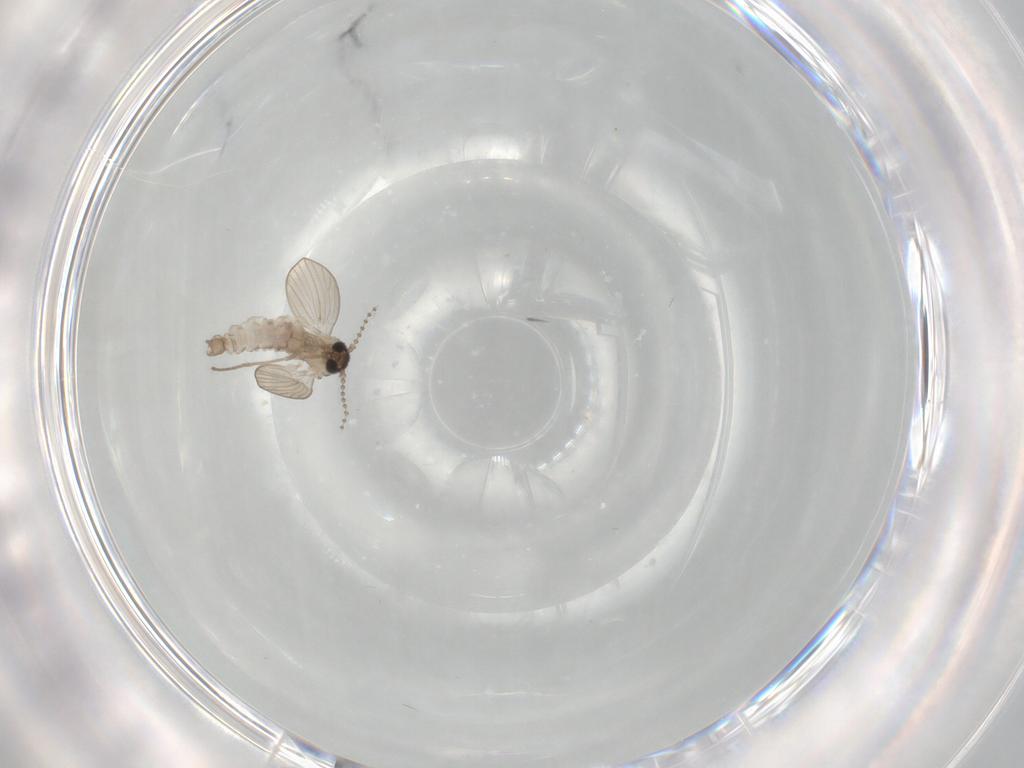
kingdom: Animalia
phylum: Arthropoda
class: Insecta
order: Diptera
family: Psychodidae
